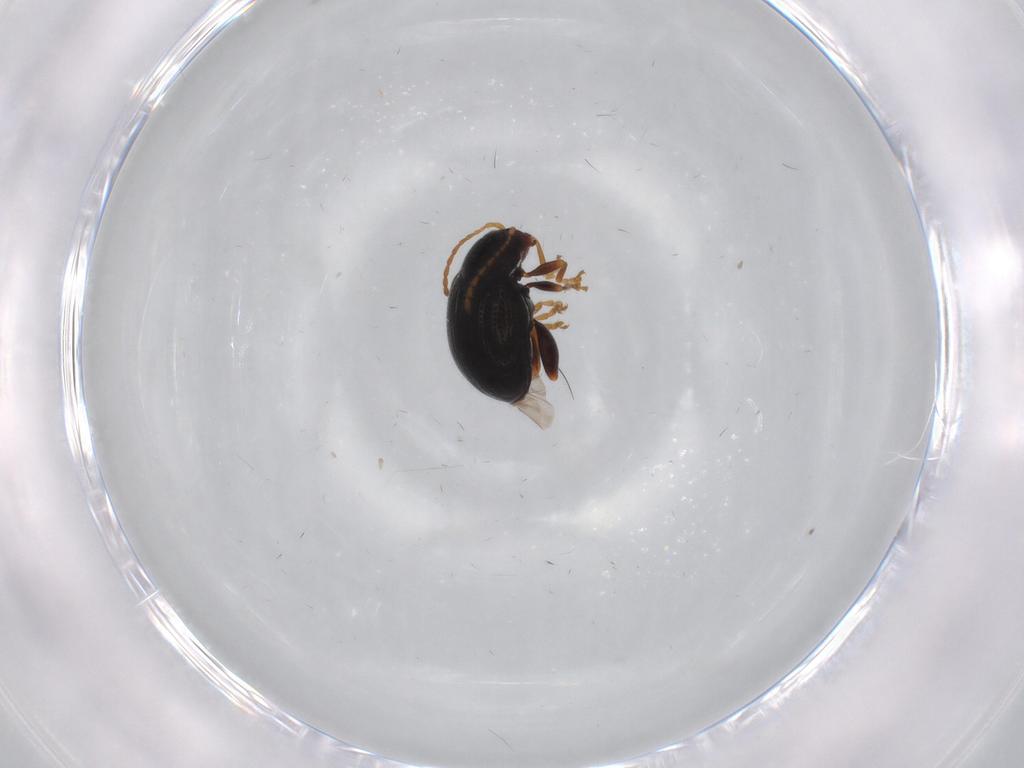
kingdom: Animalia
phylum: Arthropoda
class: Insecta
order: Coleoptera
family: Chrysomelidae
